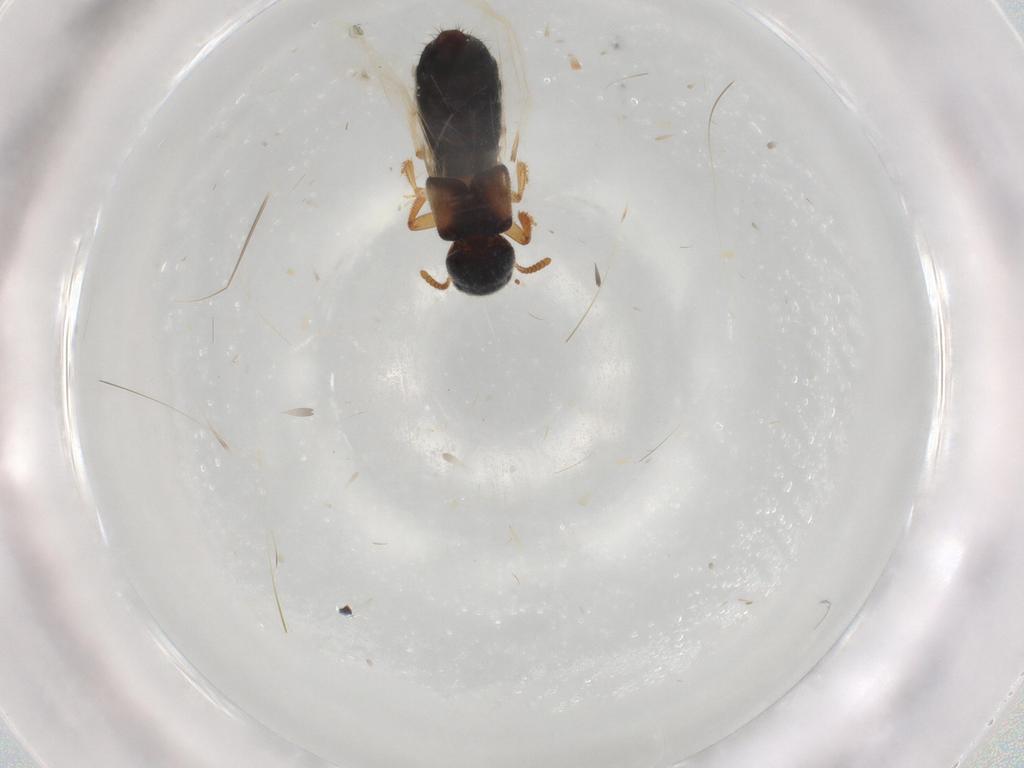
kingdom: Animalia
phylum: Arthropoda
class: Insecta
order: Coleoptera
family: Staphylinidae
